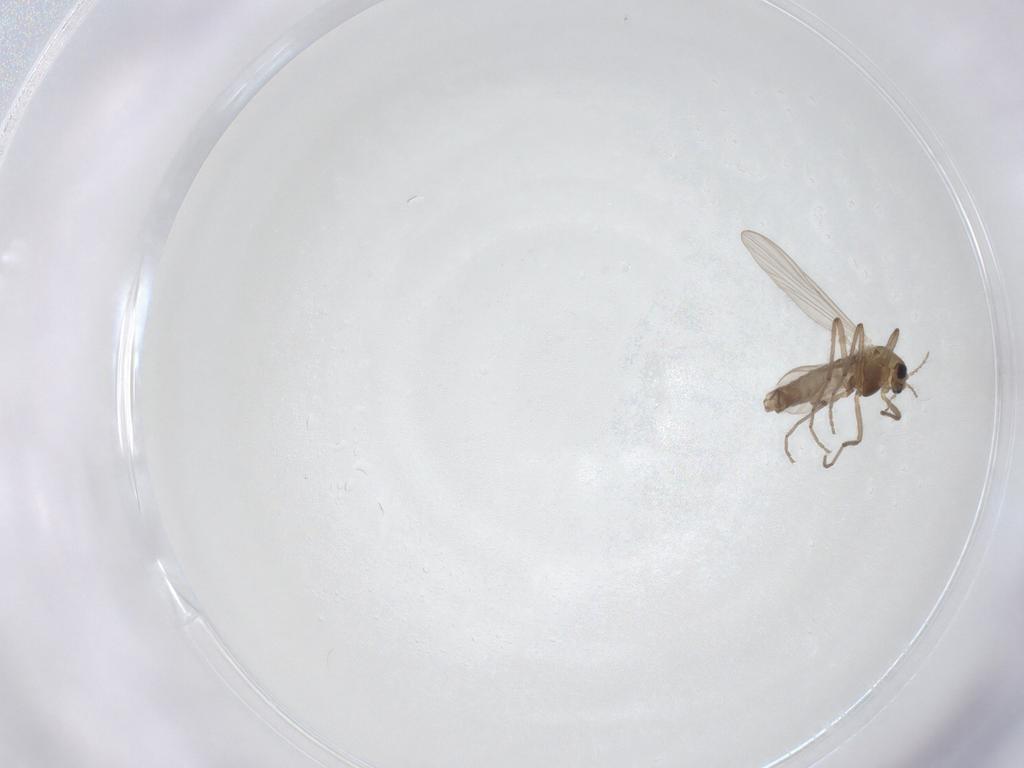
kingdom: Animalia
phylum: Arthropoda
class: Insecta
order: Diptera
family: Chironomidae
